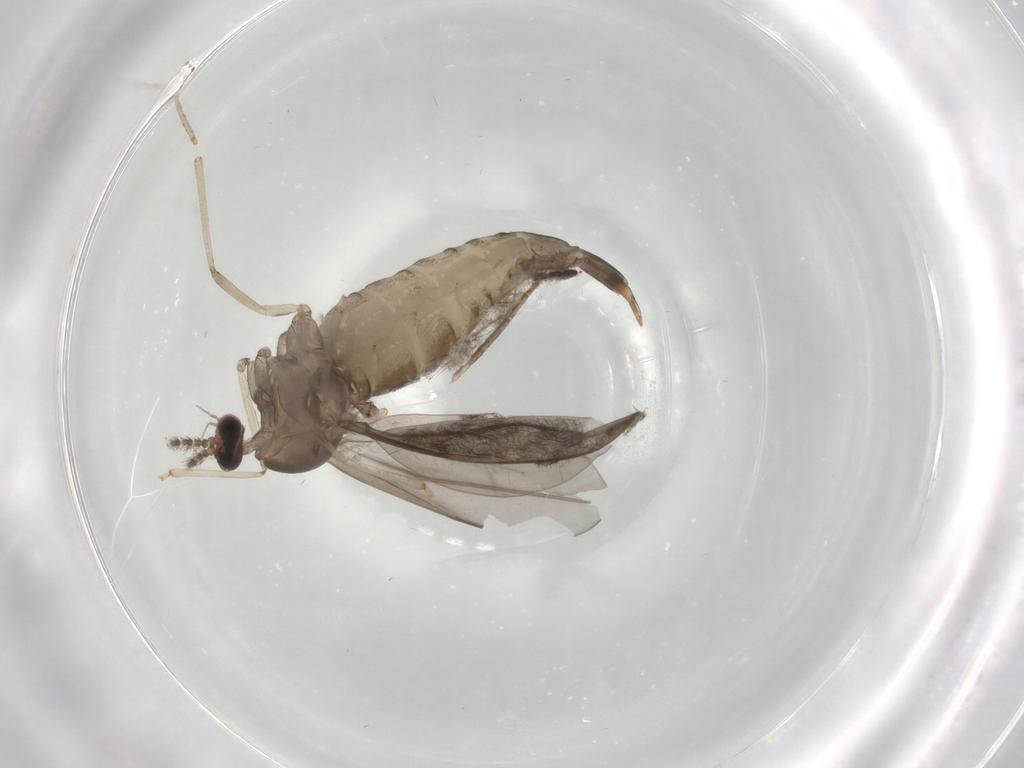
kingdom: Animalia
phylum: Arthropoda
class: Insecta
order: Diptera
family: Cecidomyiidae
